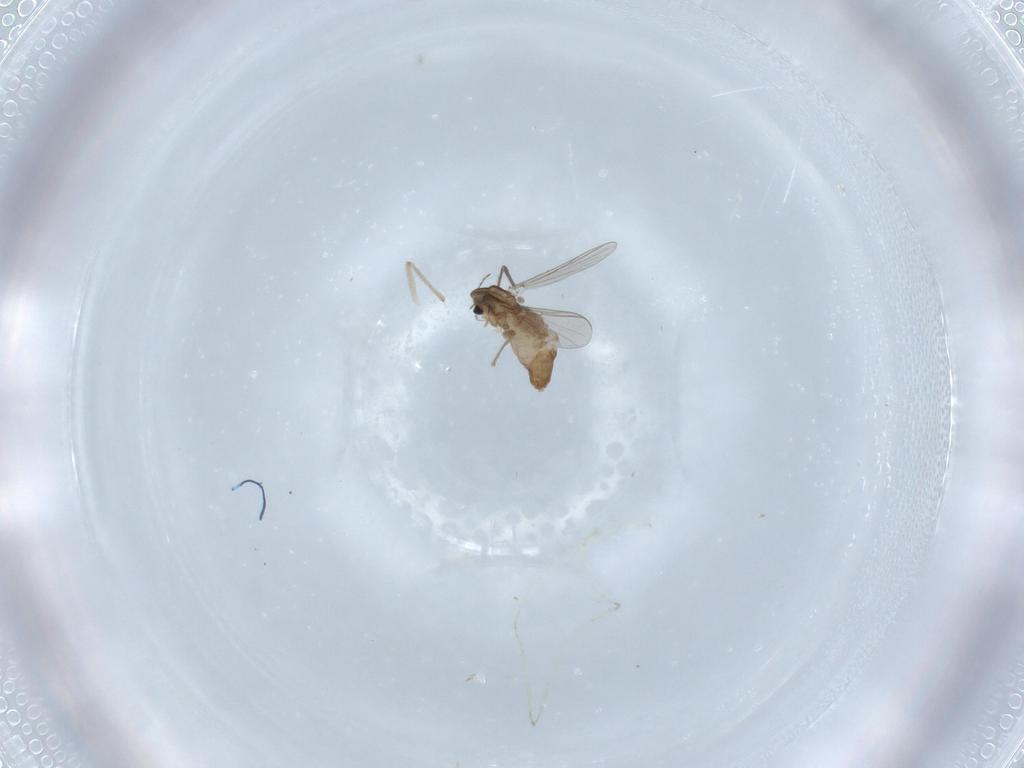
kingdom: Animalia
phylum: Arthropoda
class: Insecta
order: Diptera
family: Chironomidae
